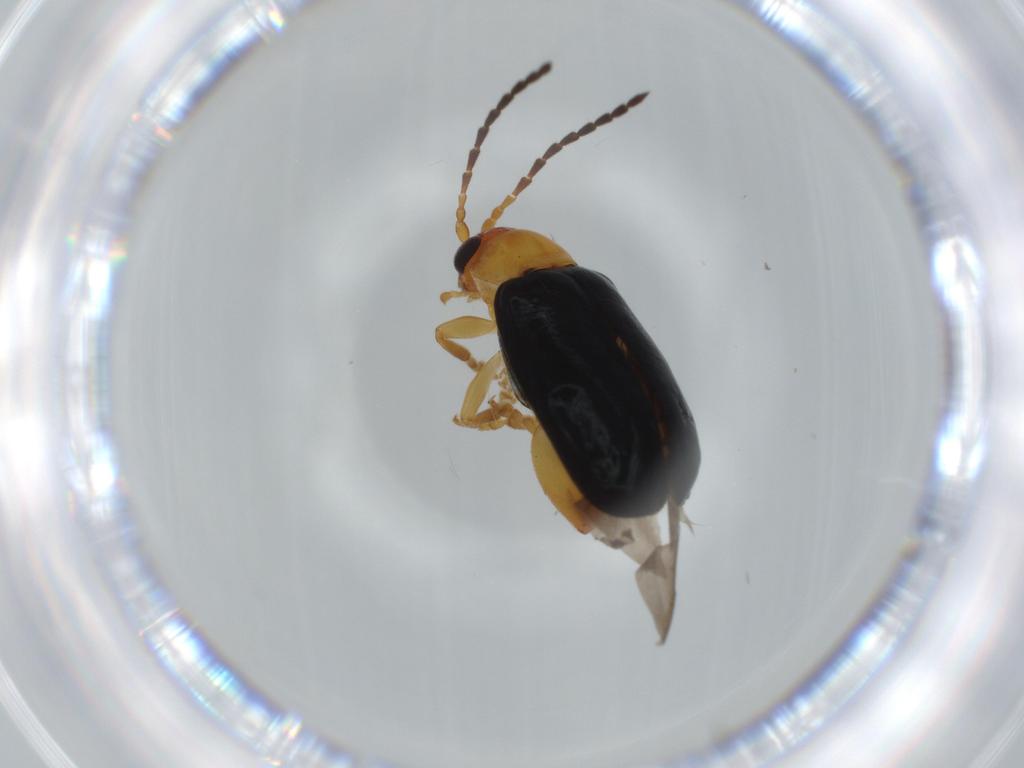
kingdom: Animalia
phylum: Arthropoda
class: Insecta
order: Coleoptera
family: Chrysomelidae
